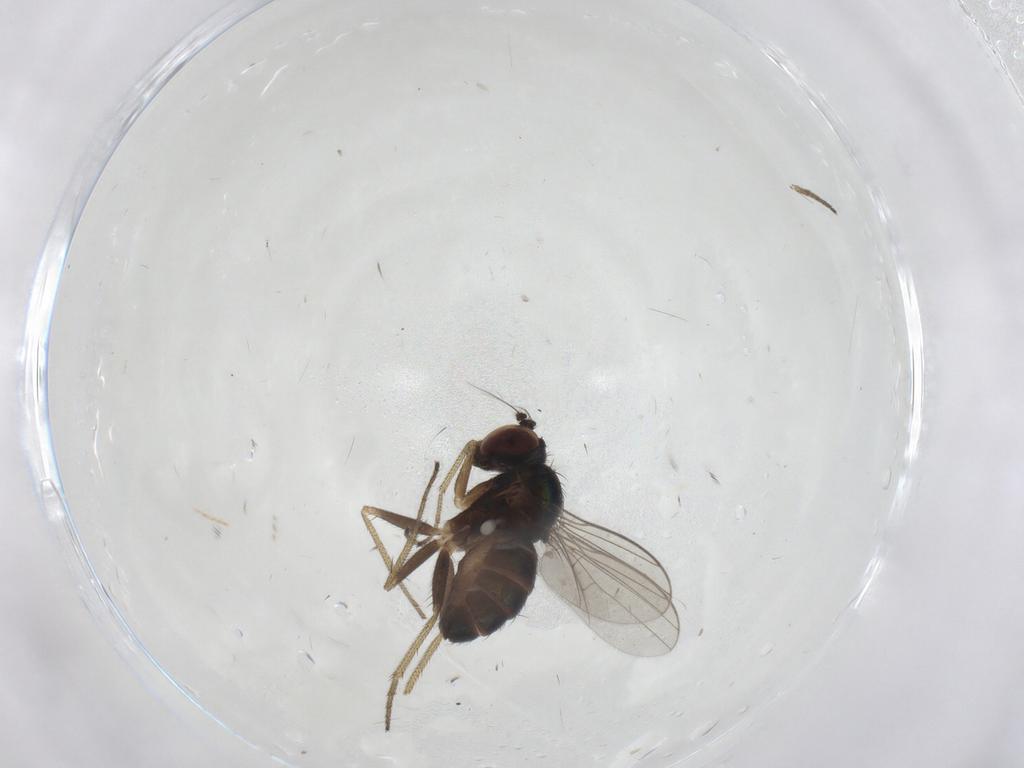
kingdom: Animalia
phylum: Arthropoda
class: Insecta
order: Diptera
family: Dolichopodidae
